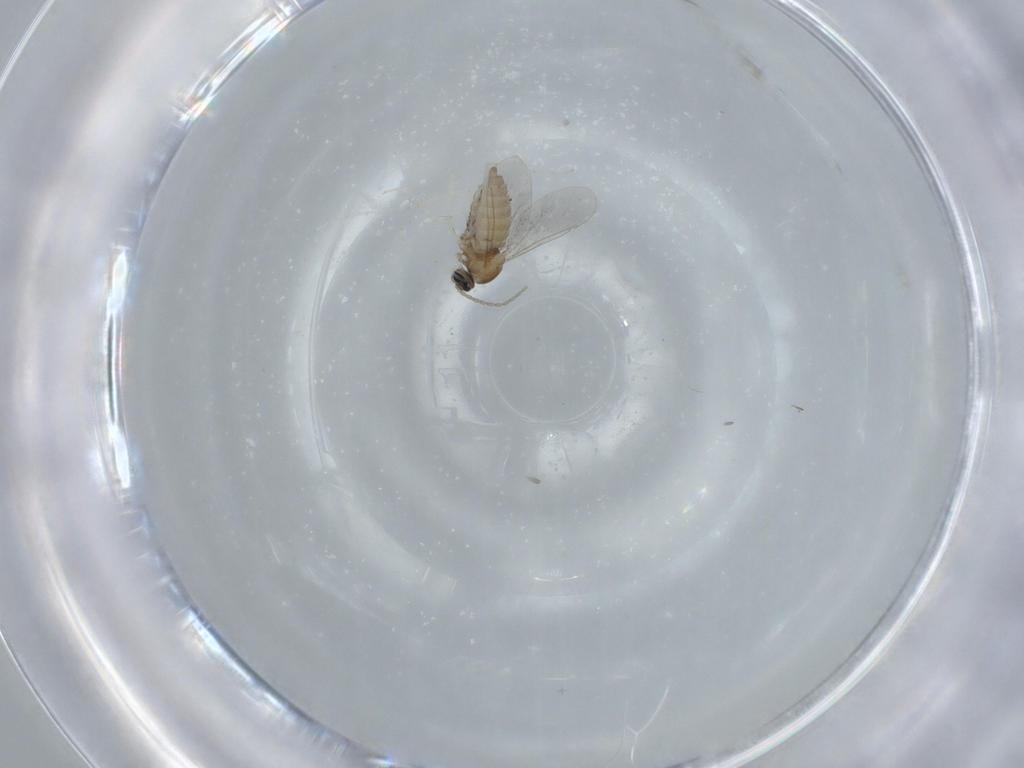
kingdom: Animalia
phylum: Arthropoda
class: Insecta
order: Diptera
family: Cecidomyiidae
